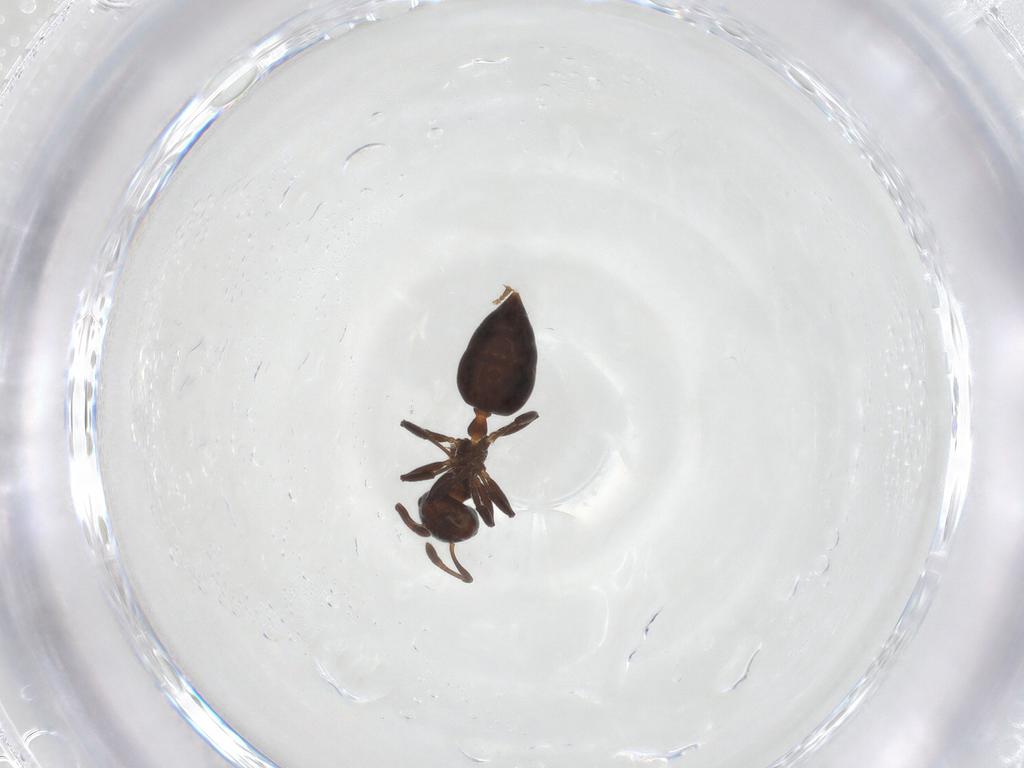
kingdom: Animalia
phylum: Arthropoda
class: Insecta
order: Hymenoptera
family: Formicidae
